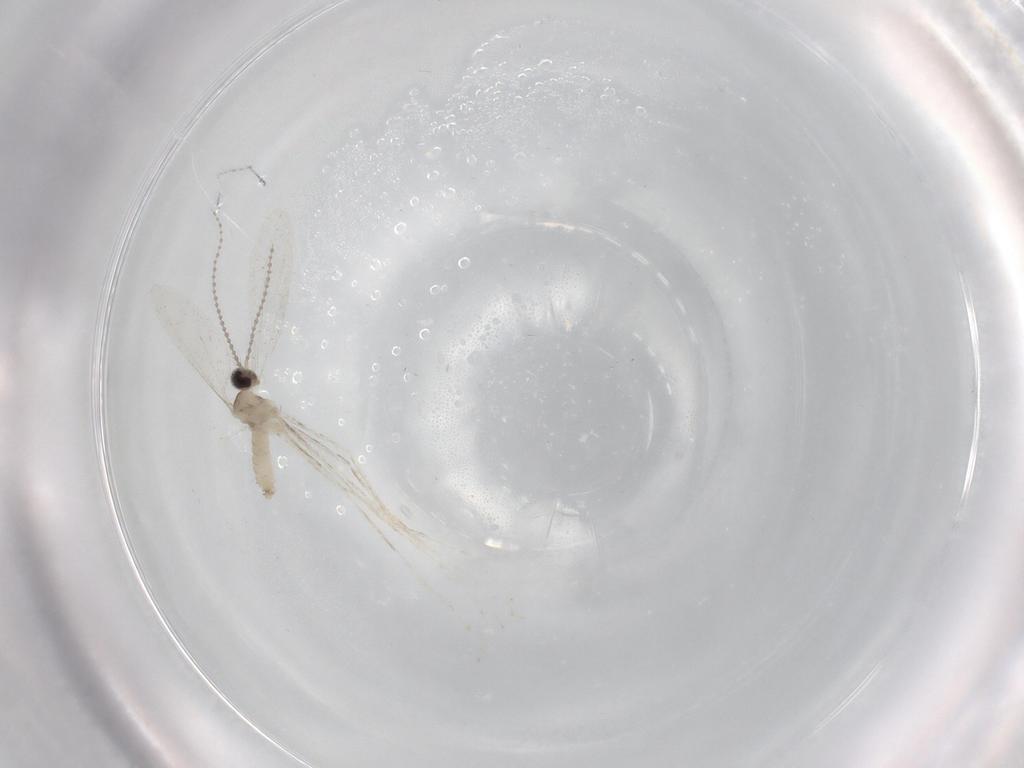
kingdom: Animalia
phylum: Arthropoda
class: Insecta
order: Diptera
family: Cecidomyiidae
